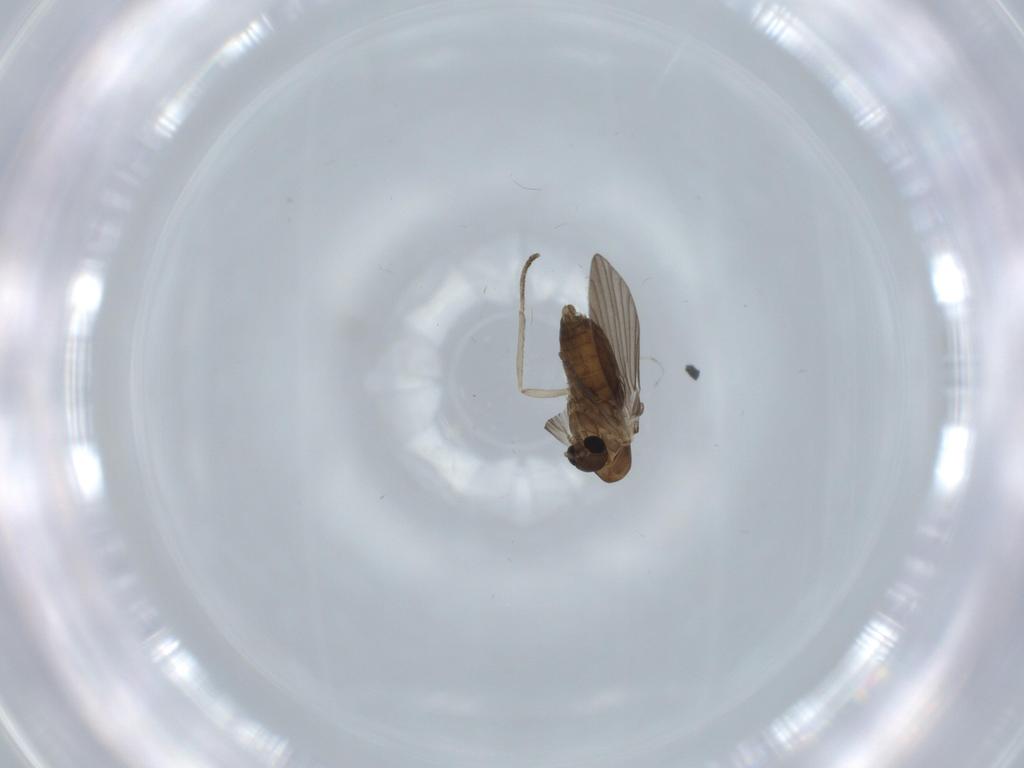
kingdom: Animalia
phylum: Arthropoda
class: Insecta
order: Diptera
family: Psychodidae
